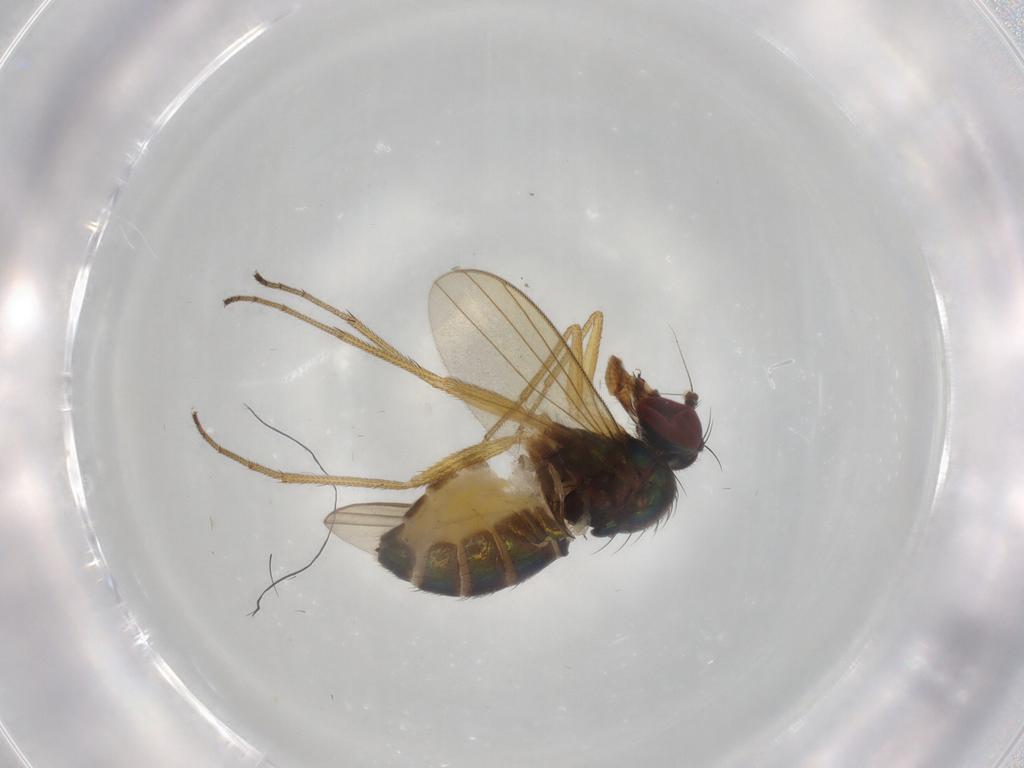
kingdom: Animalia
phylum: Arthropoda
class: Insecta
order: Diptera
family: Dolichopodidae
